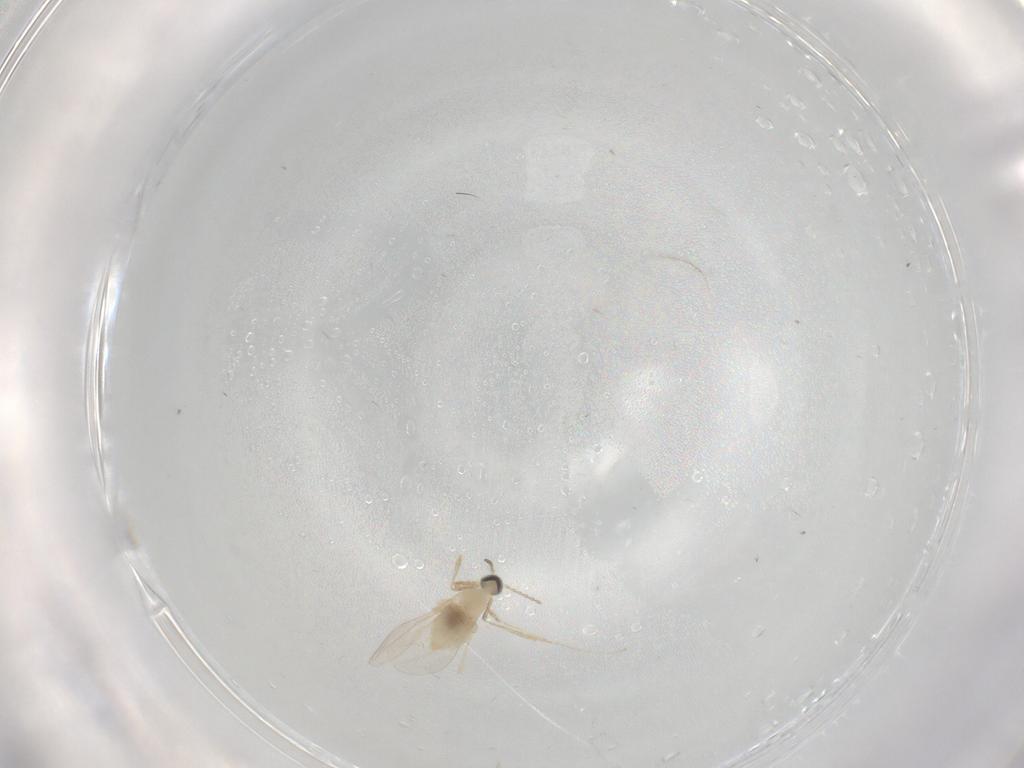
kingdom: Animalia
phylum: Arthropoda
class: Insecta
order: Diptera
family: Cecidomyiidae
